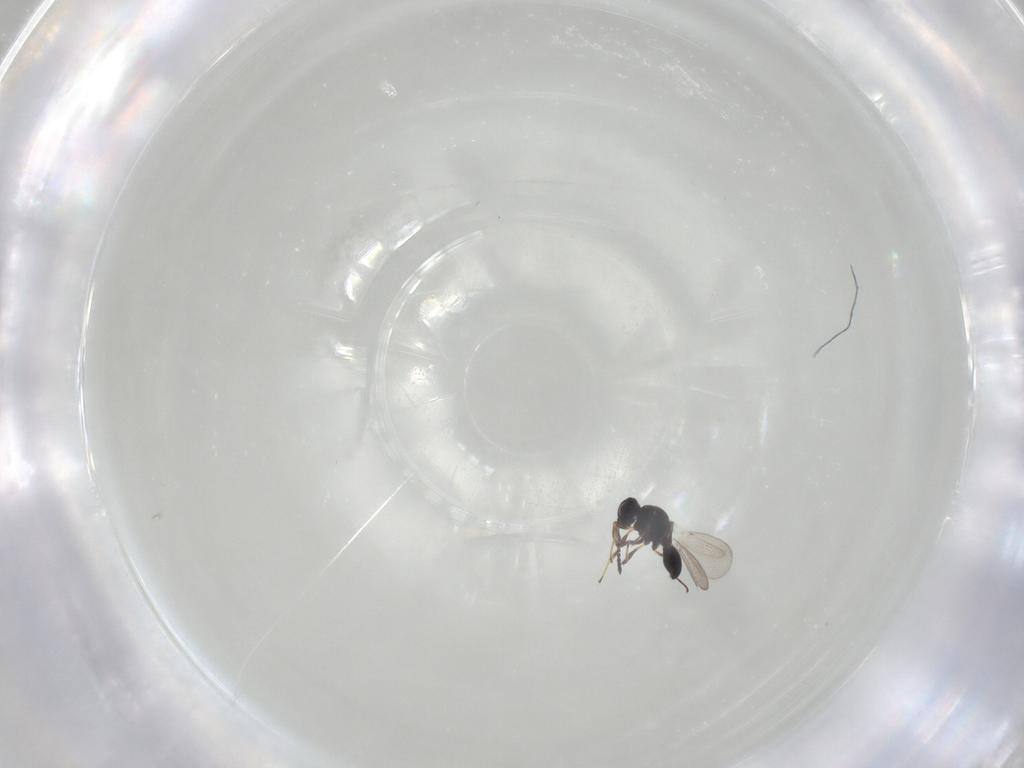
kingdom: Animalia
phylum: Arthropoda
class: Insecta
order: Hymenoptera
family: Platygastridae
